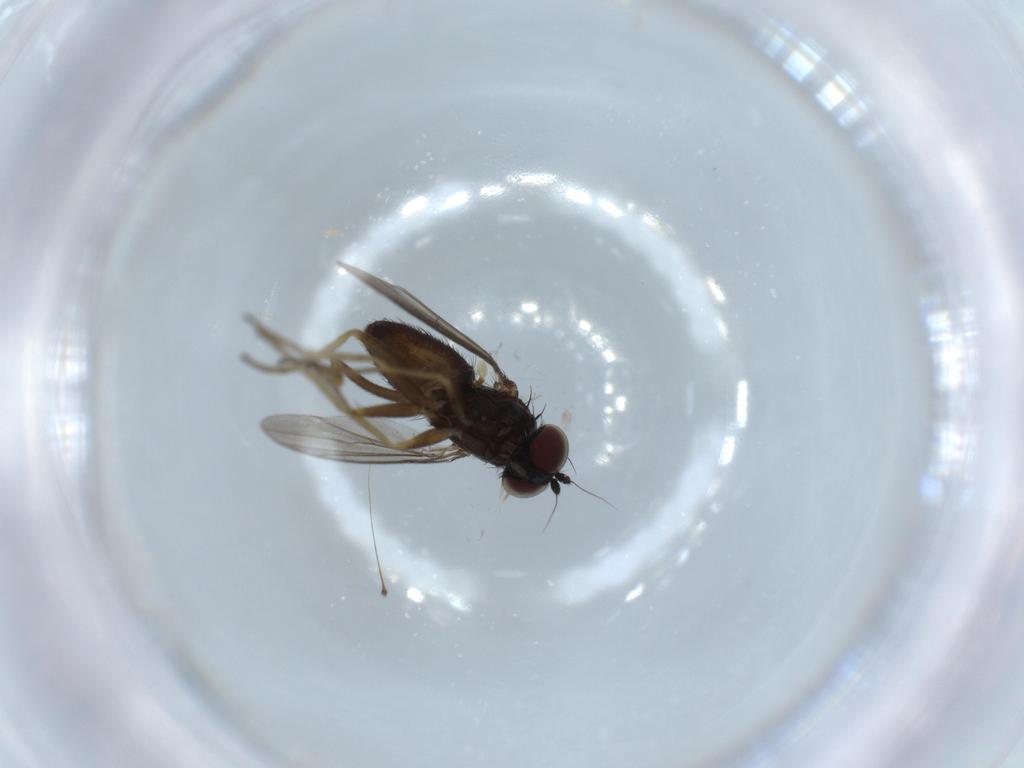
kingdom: Animalia
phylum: Arthropoda
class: Insecta
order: Diptera
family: Dolichopodidae
